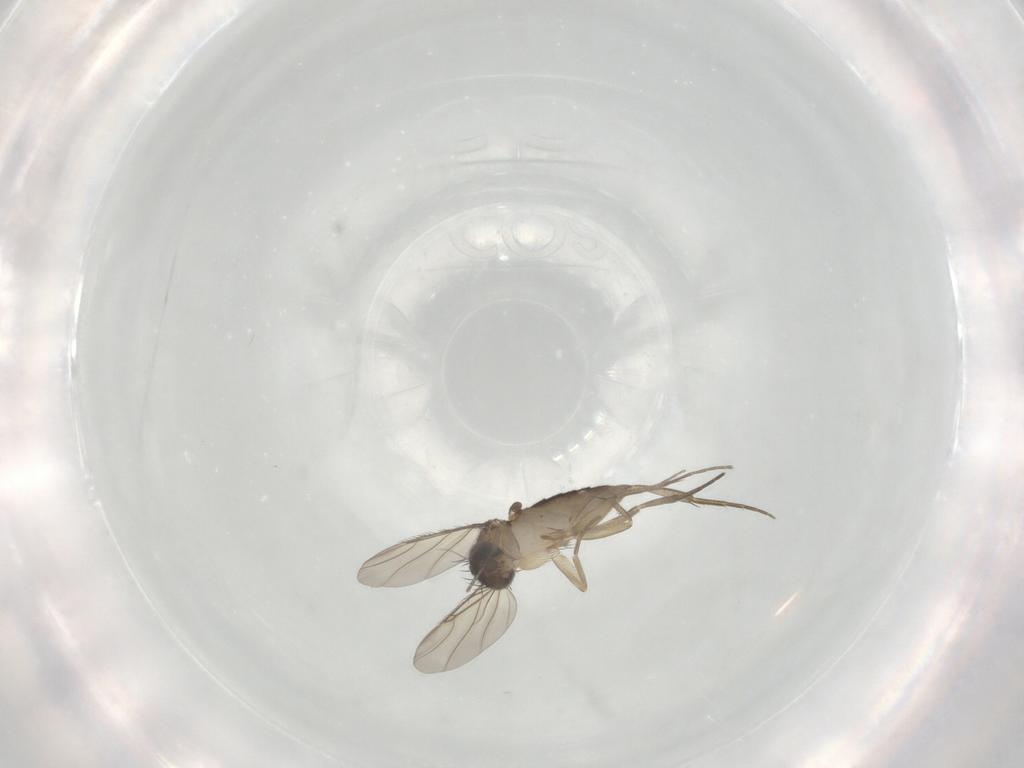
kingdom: Animalia
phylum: Arthropoda
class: Insecta
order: Diptera
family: Phoridae
